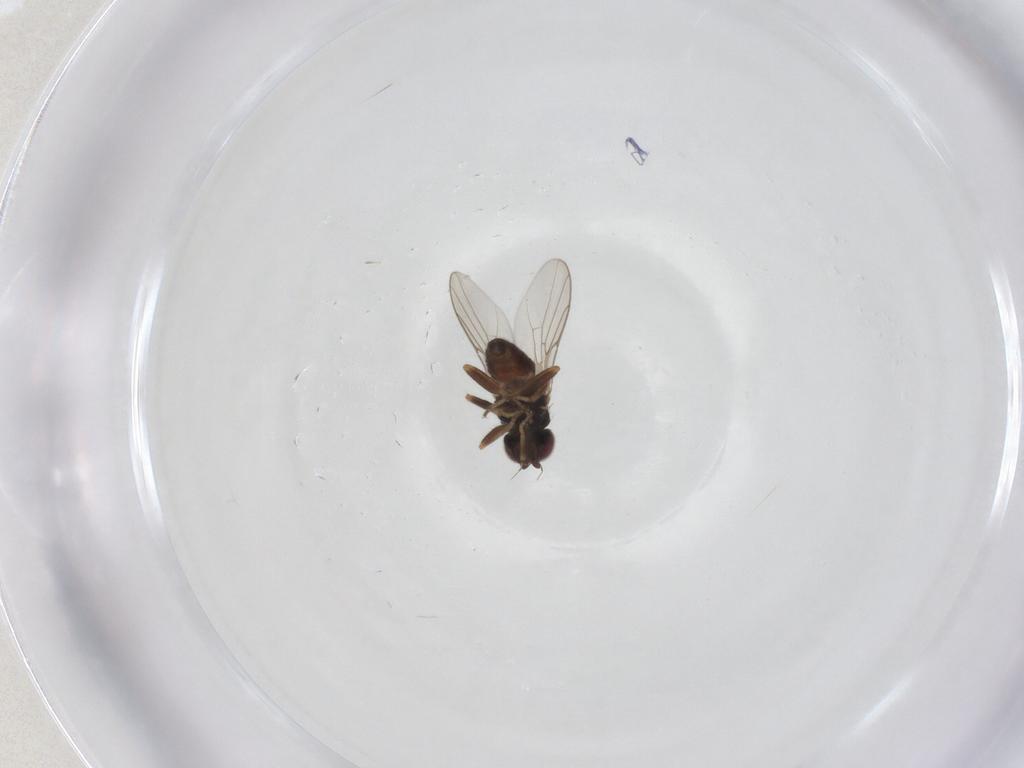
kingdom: Animalia
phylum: Arthropoda
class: Insecta
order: Diptera
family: Chloropidae
